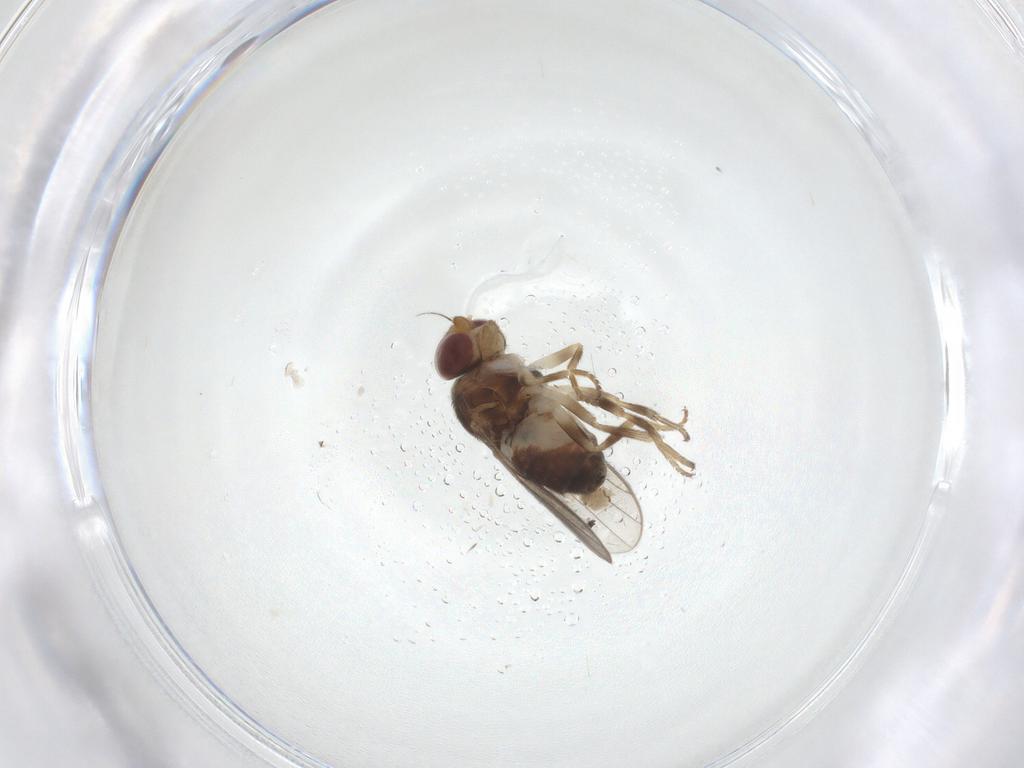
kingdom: Animalia
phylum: Arthropoda
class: Insecta
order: Diptera
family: Chloropidae
